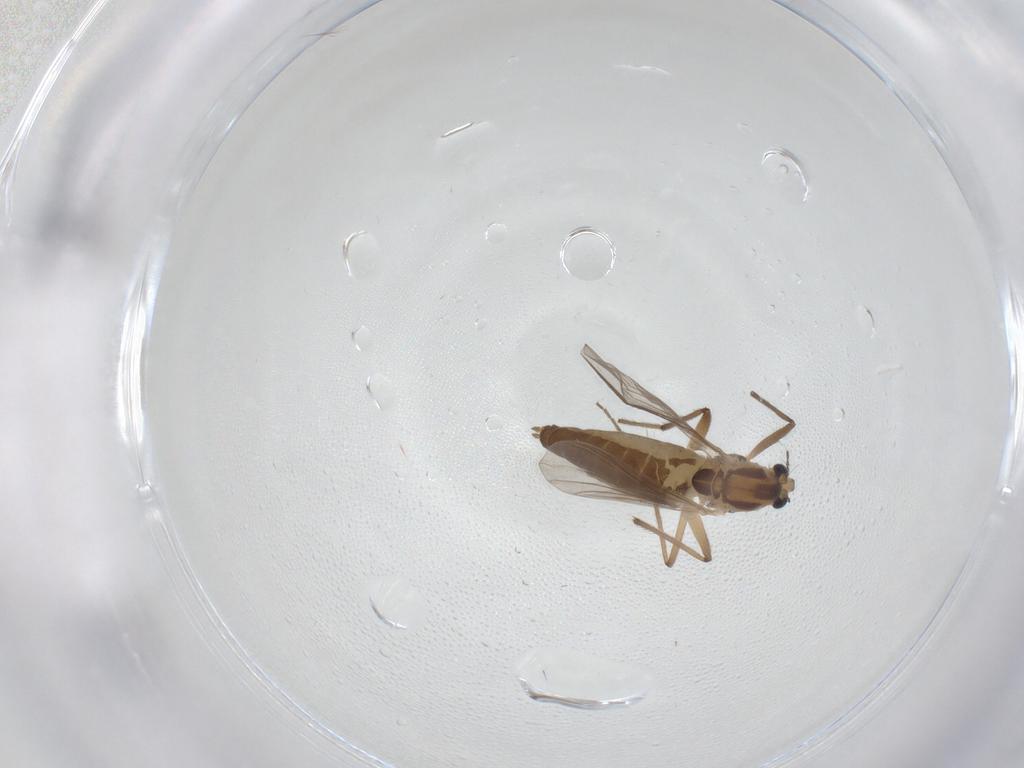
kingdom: Animalia
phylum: Arthropoda
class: Insecta
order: Diptera
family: Chironomidae
